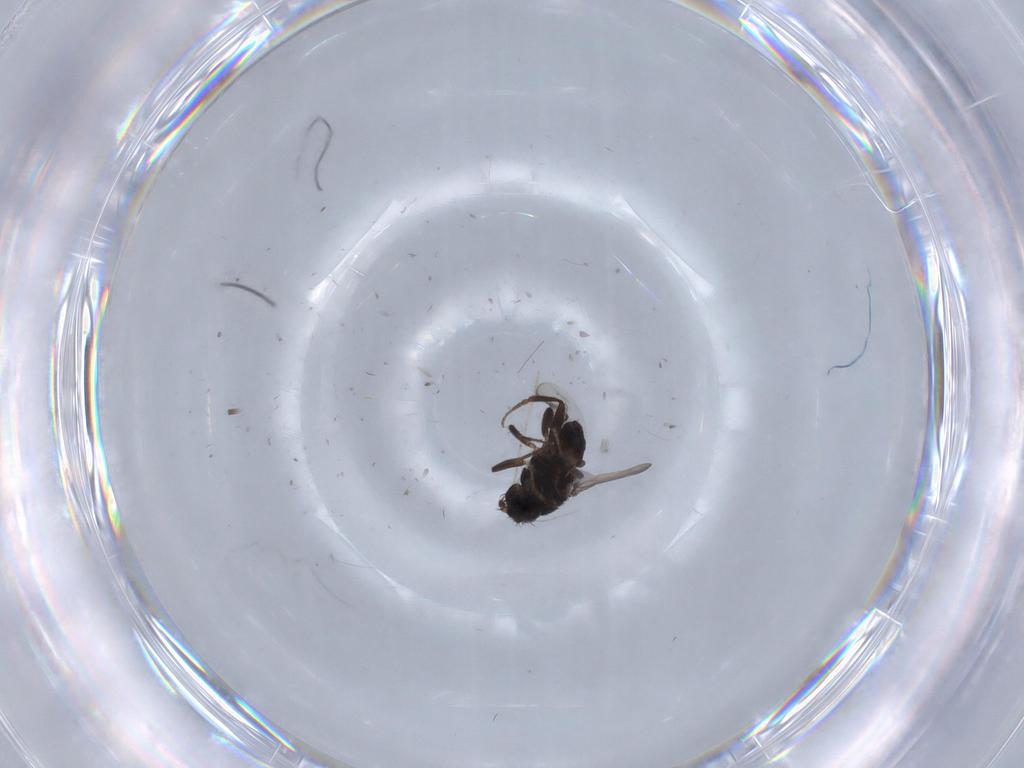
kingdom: Animalia
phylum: Arthropoda
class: Insecta
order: Diptera
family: Sphaeroceridae
